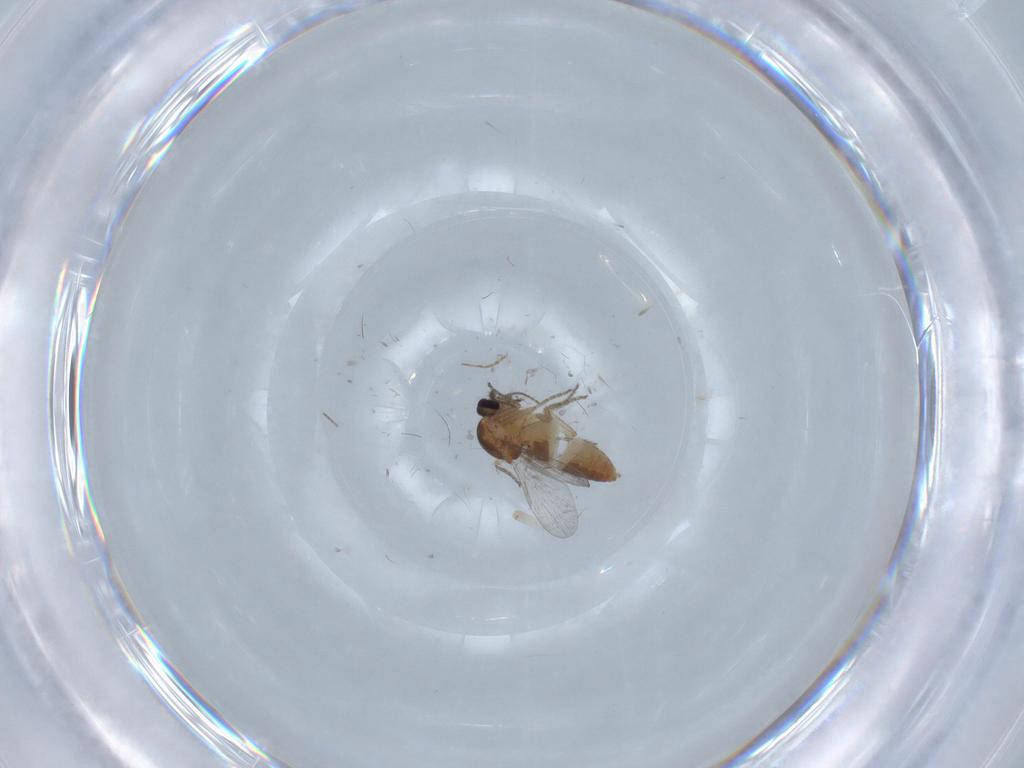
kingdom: Animalia
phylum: Arthropoda
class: Insecta
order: Diptera
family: Ceratopogonidae
